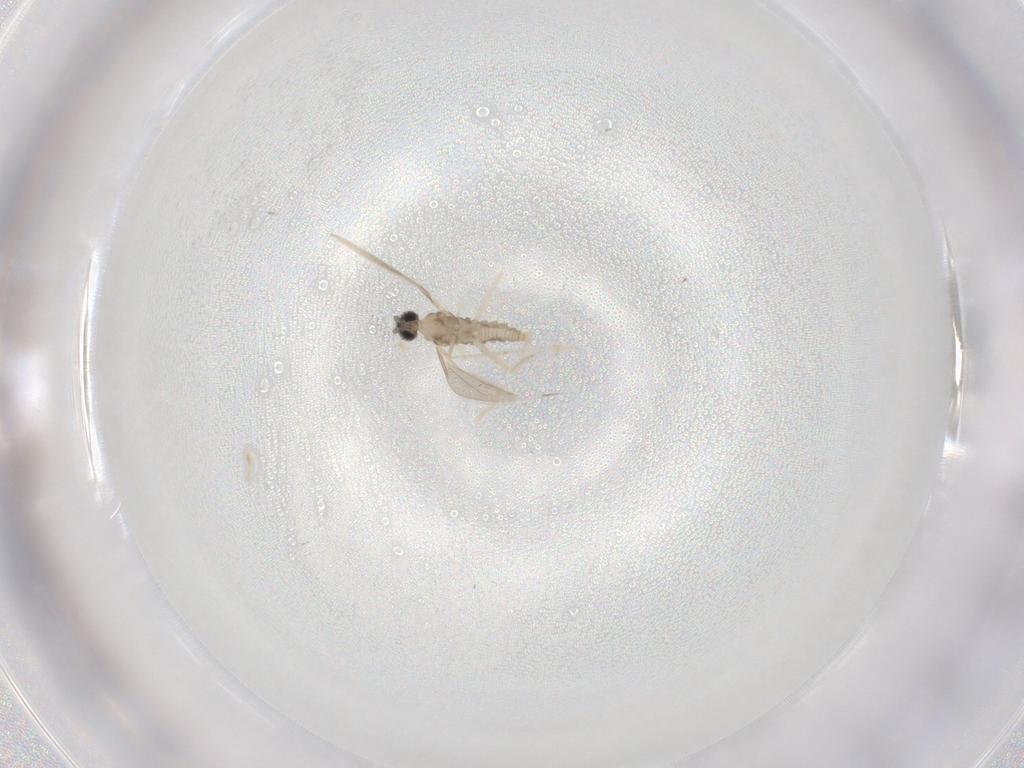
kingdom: Animalia
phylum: Arthropoda
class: Insecta
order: Diptera
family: Cecidomyiidae
